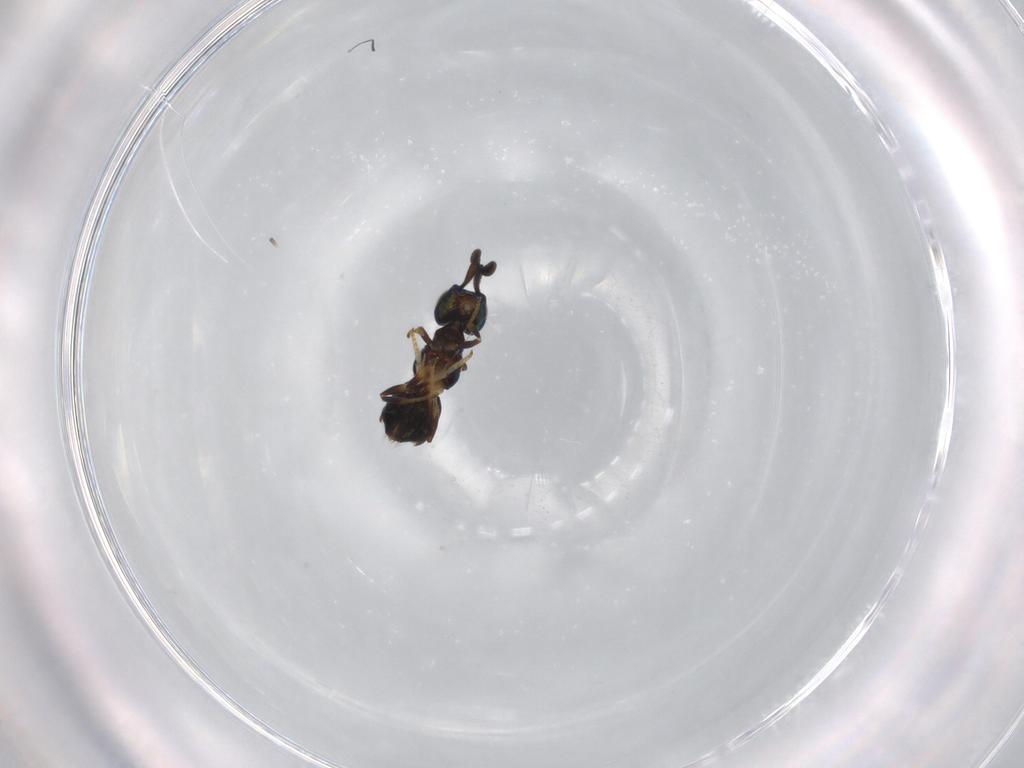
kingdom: Animalia
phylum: Arthropoda
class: Insecta
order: Hymenoptera
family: Encyrtidae
